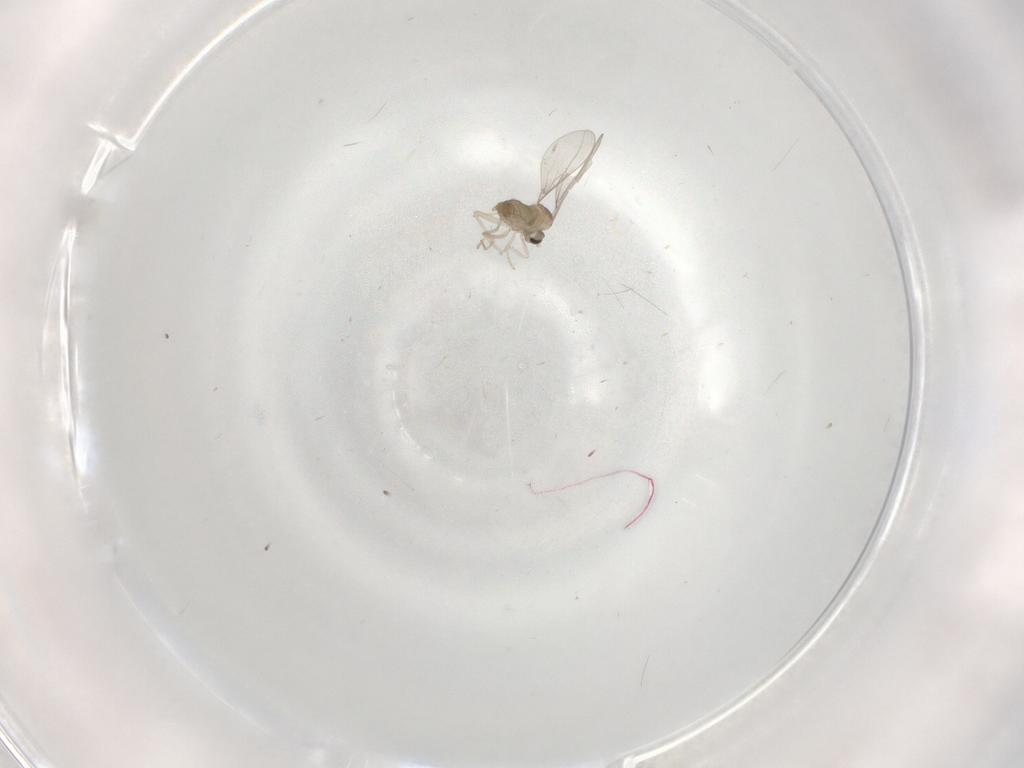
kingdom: Animalia
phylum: Arthropoda
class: Insecta
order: Diptera
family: Cecidomyiidae
